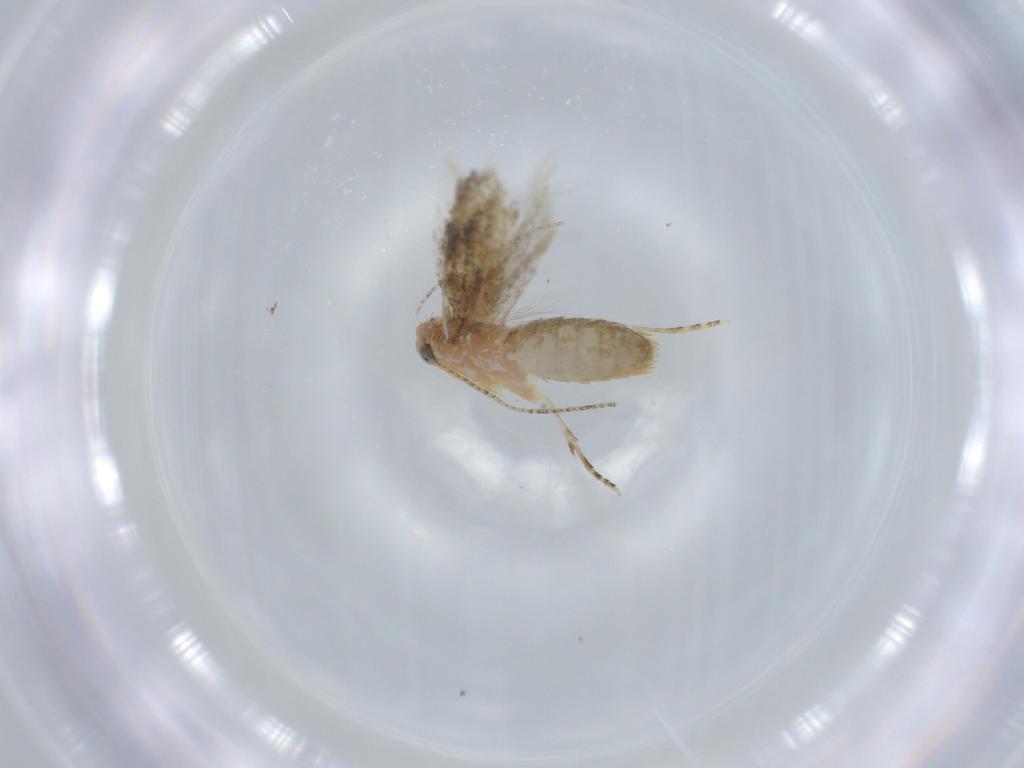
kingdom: Animalia
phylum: Arthropoda
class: Insecta
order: Lepidoptera
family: Bucculatricidae
